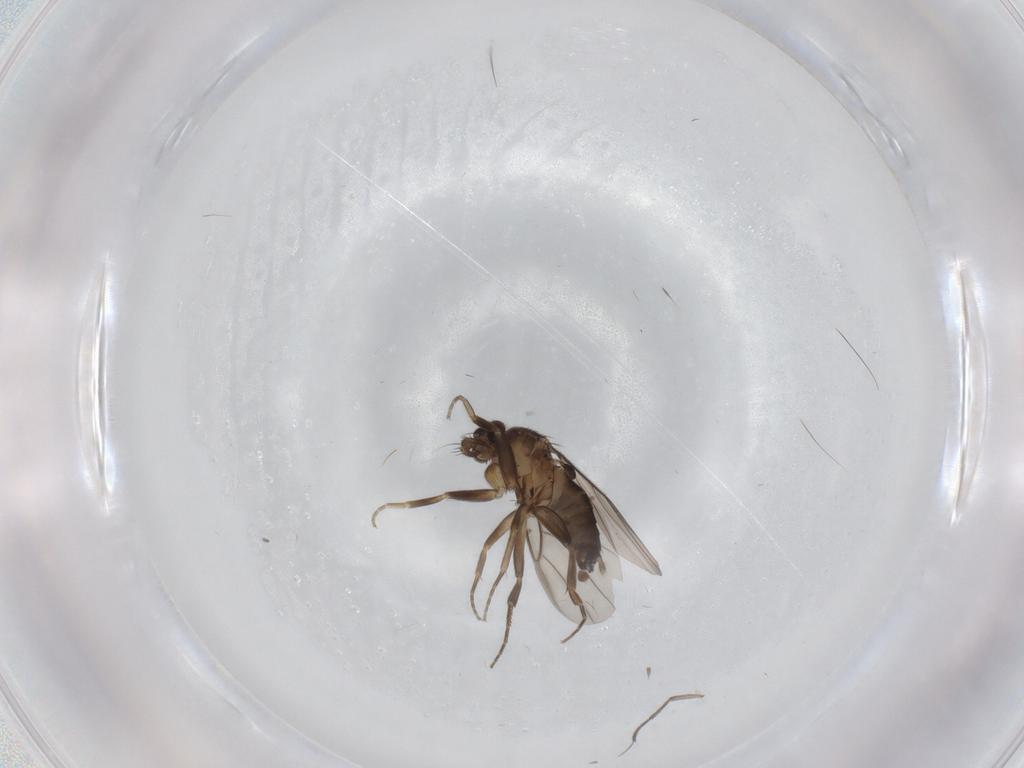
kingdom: Animalia
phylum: Arthropoda
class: Insecta
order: Diptera
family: Sciaridae
